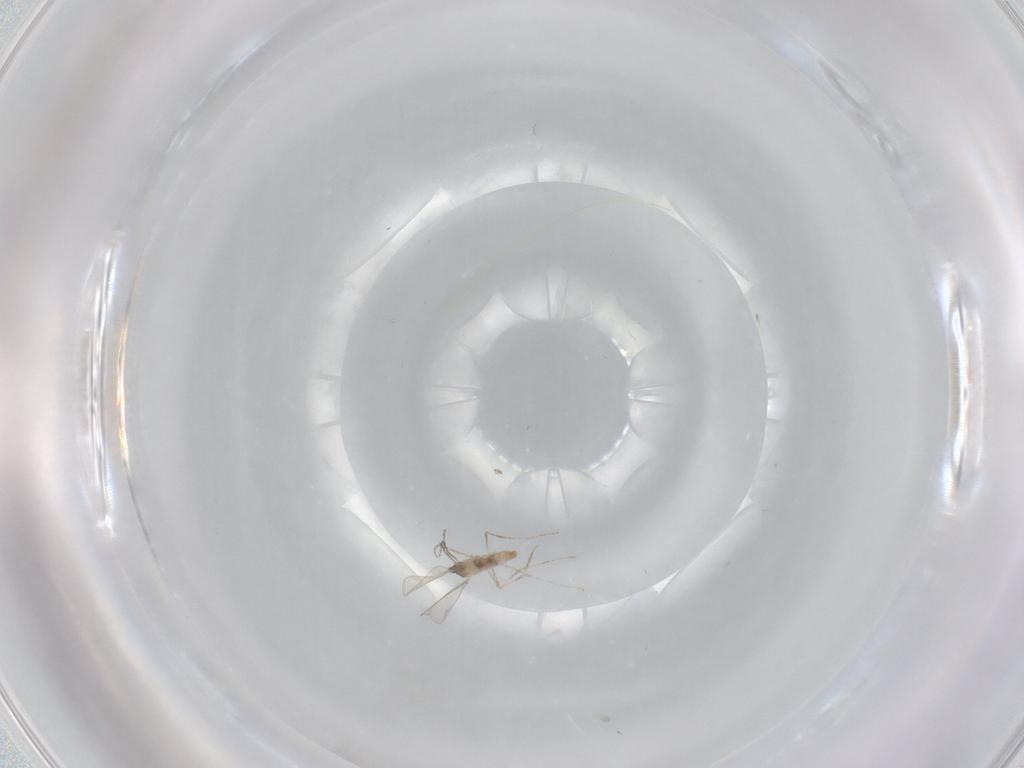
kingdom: Animalia
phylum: Arthropoda
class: Insecta
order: Diptera
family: Cecidomyiidae
